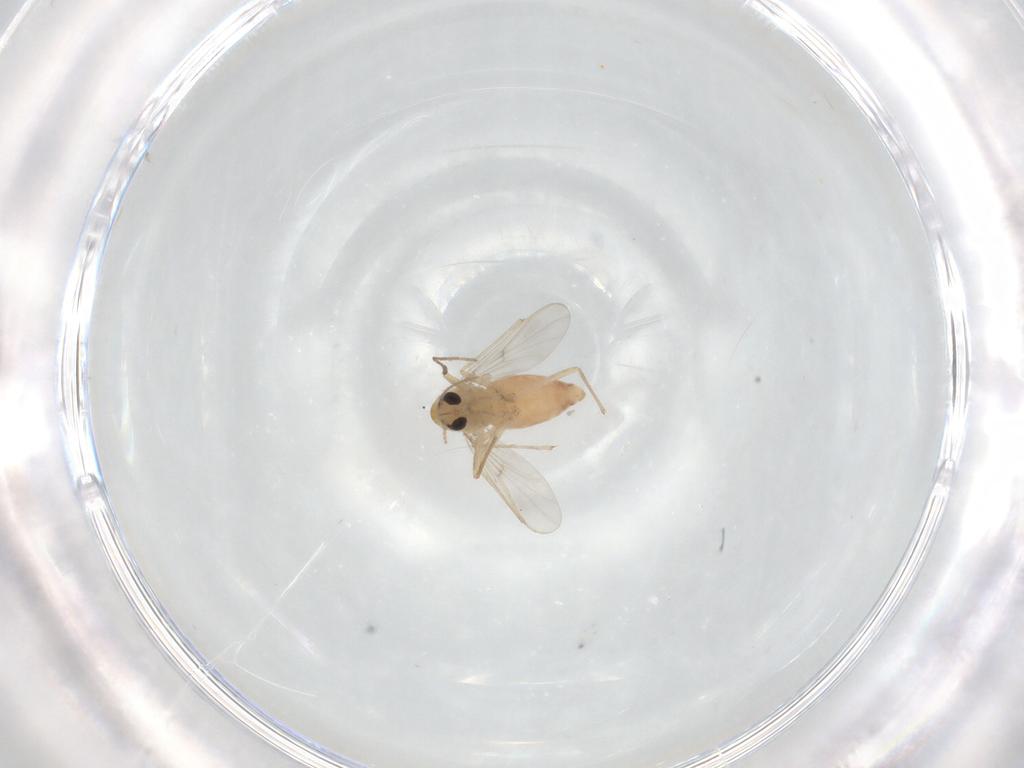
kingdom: Animalia
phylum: Arthropoda
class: Insecta
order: Diptera
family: Chironomidae
